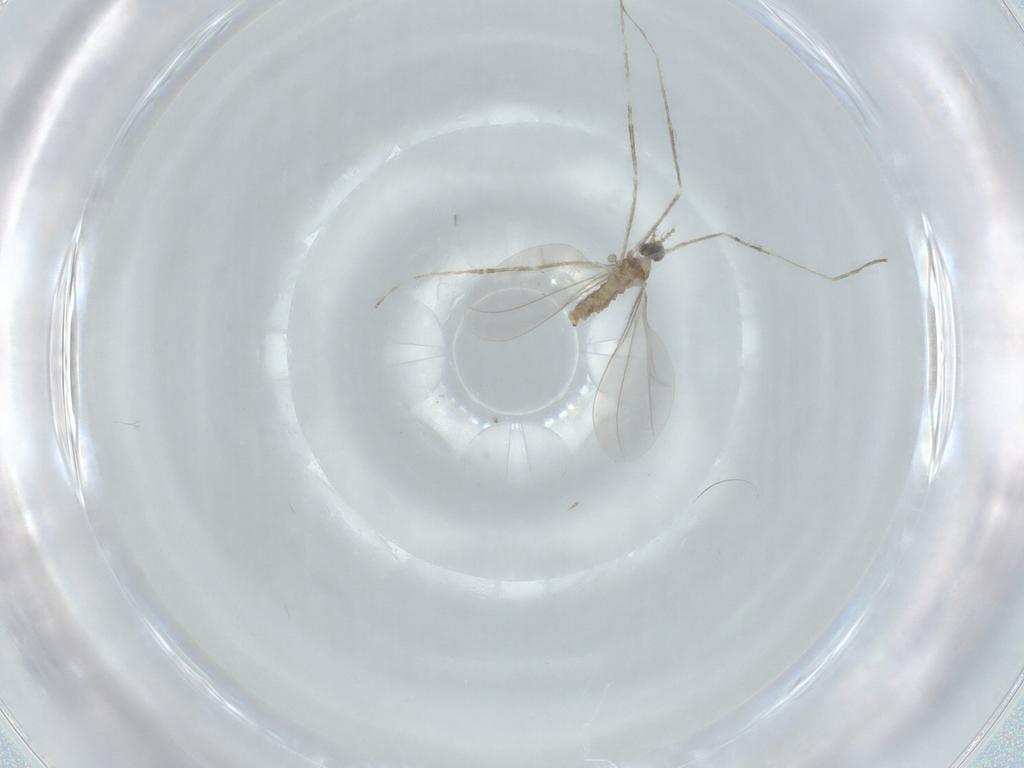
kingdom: Animalia
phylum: Arthropoda
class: Insecta
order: Diptera
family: Cecidomyiidae
